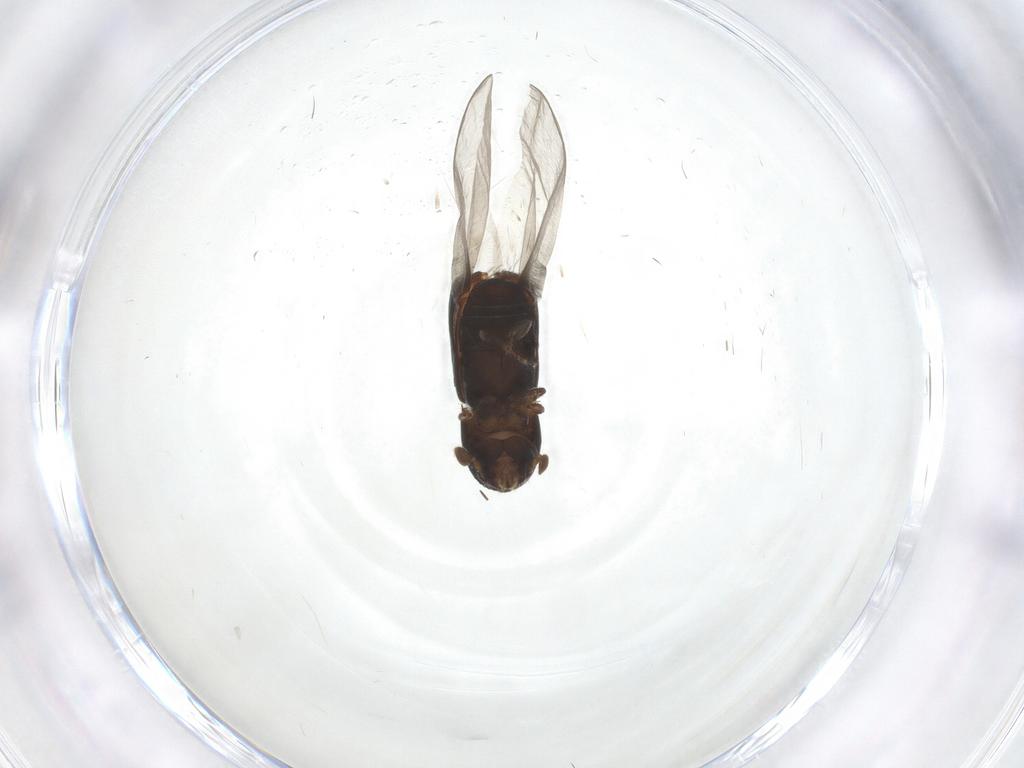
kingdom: Animalia
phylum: Arthropoda
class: Insecta
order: Coleoptera
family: Curculionidae
